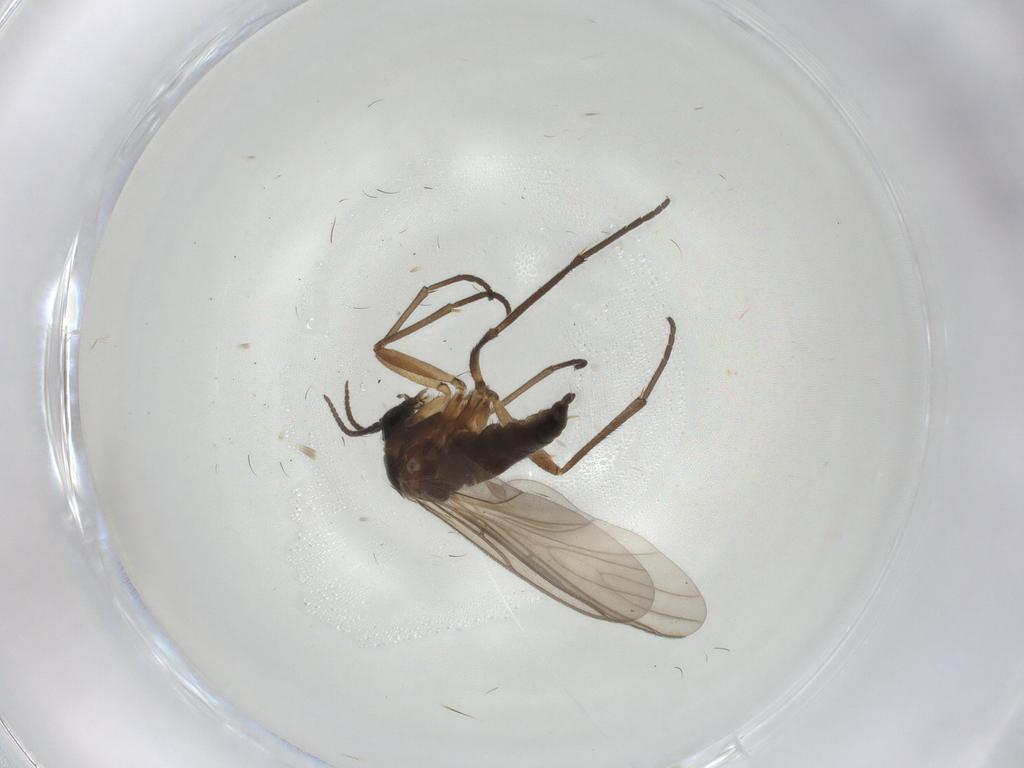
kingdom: Animalia
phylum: Arthropoda
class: Insecta
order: Diptera
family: Sciaridae
